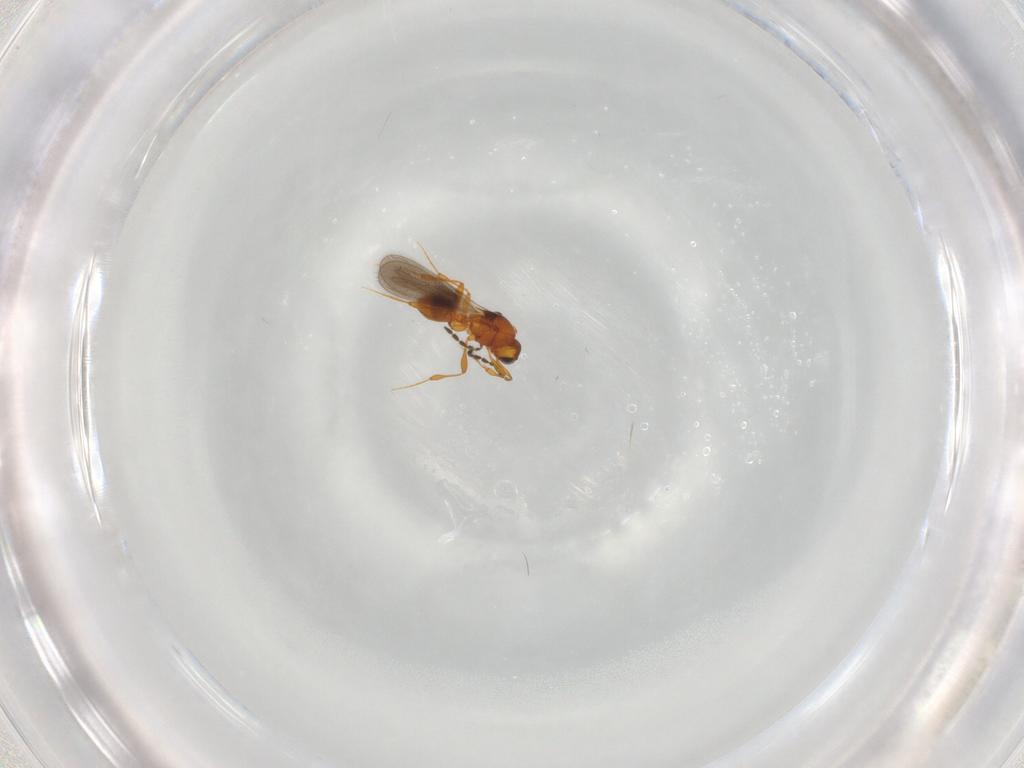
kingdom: Animalia
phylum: Arthropoda
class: Insecta
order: Hymenoptera
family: Platygastridae
